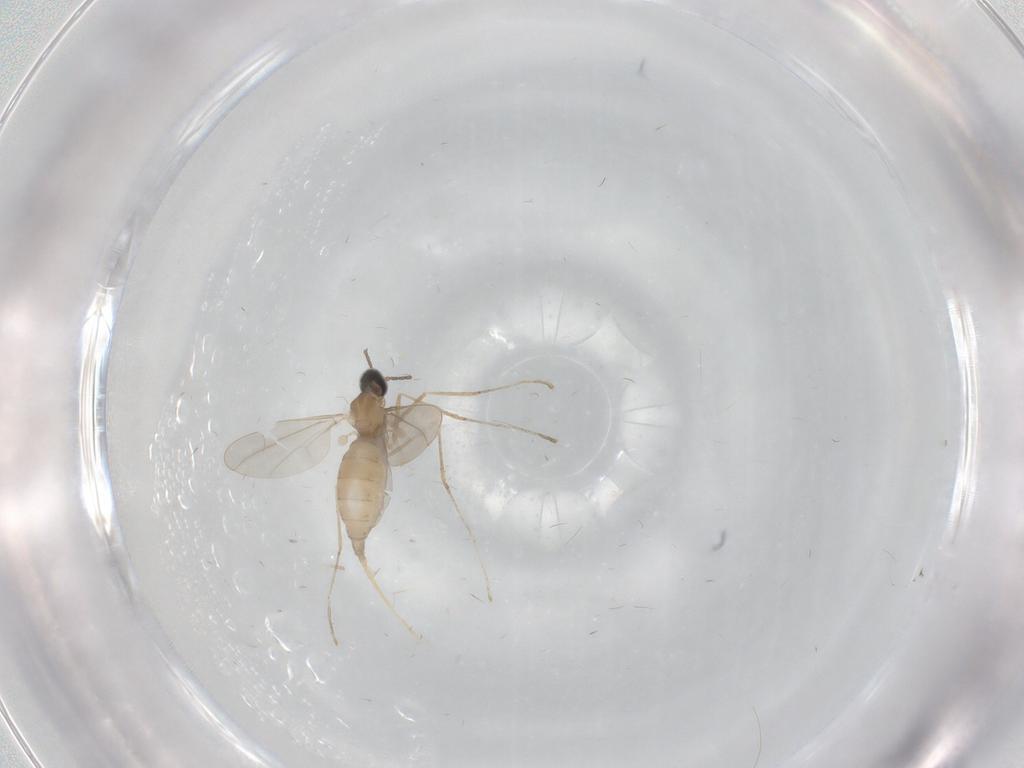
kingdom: Animalia
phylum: Arthropoda
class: Insecta
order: Diptera
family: Cecidomyiidae
